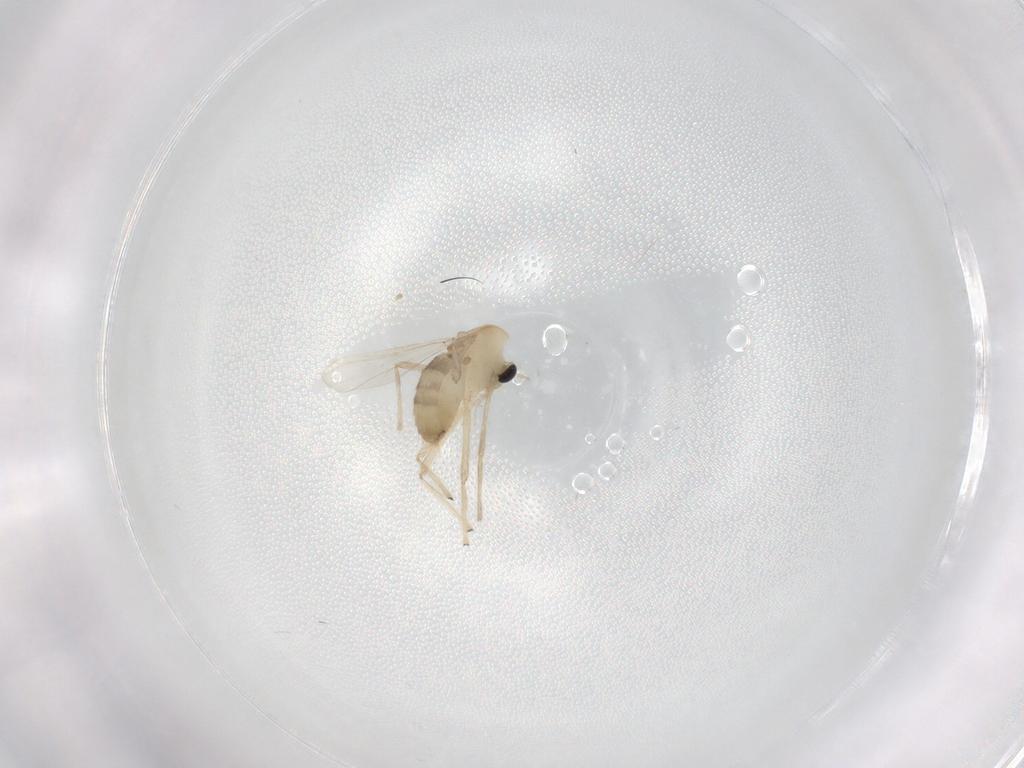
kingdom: Animalia
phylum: Arthropoda
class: Insecta
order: Diptera
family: Chironomidae
